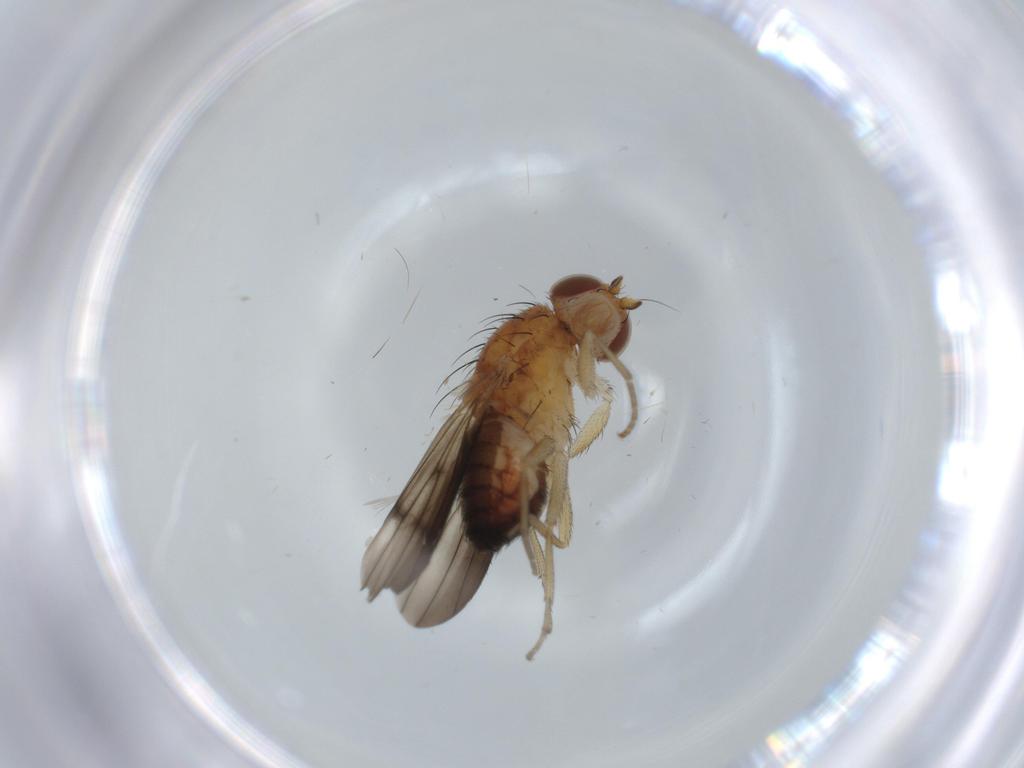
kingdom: Animalia
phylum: Arthropoda
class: Insecta
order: Diptera
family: Heleomyzidae
